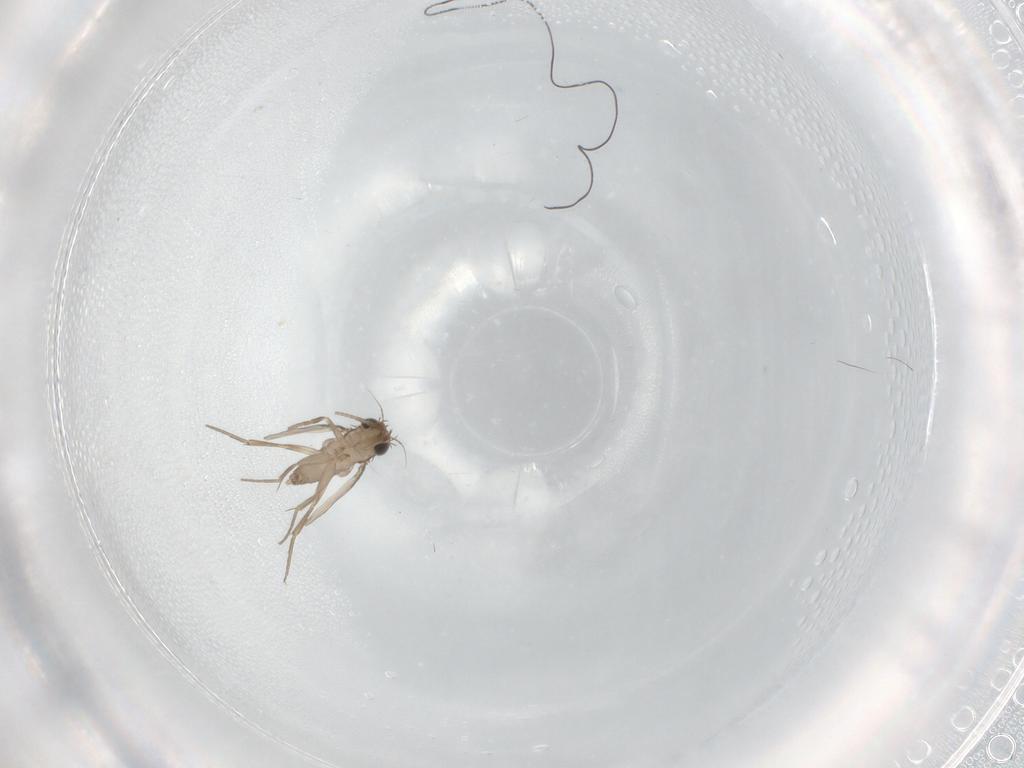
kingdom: Animalia
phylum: Arthropoda
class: Insecta
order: Diptera
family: Phoridae
